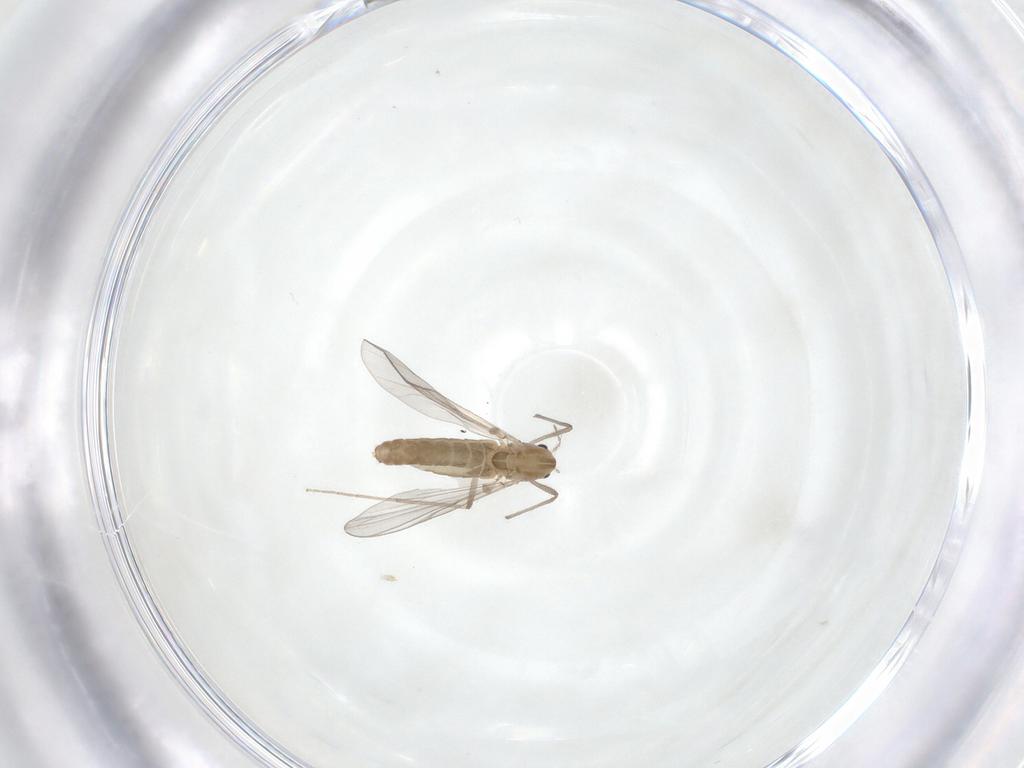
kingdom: Animalia
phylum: Arthropoda
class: Insecta
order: Diptera
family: Chironomidae
